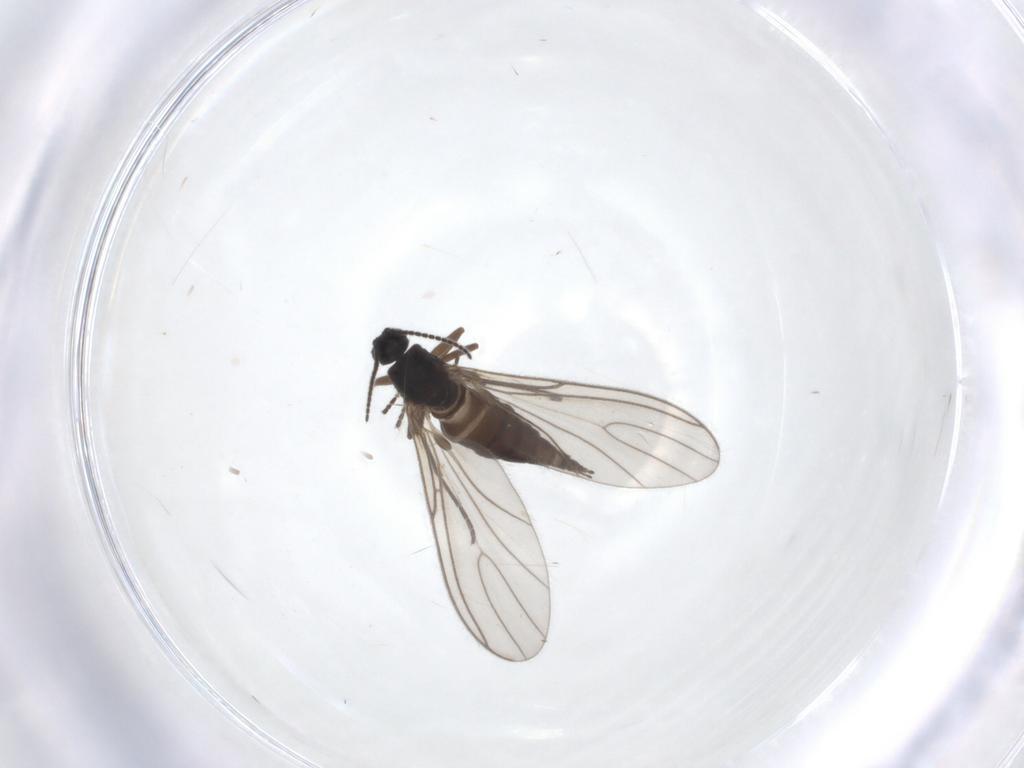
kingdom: Animalia
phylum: Arthropoda
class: Insecta
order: Diptera
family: Sciaridae
